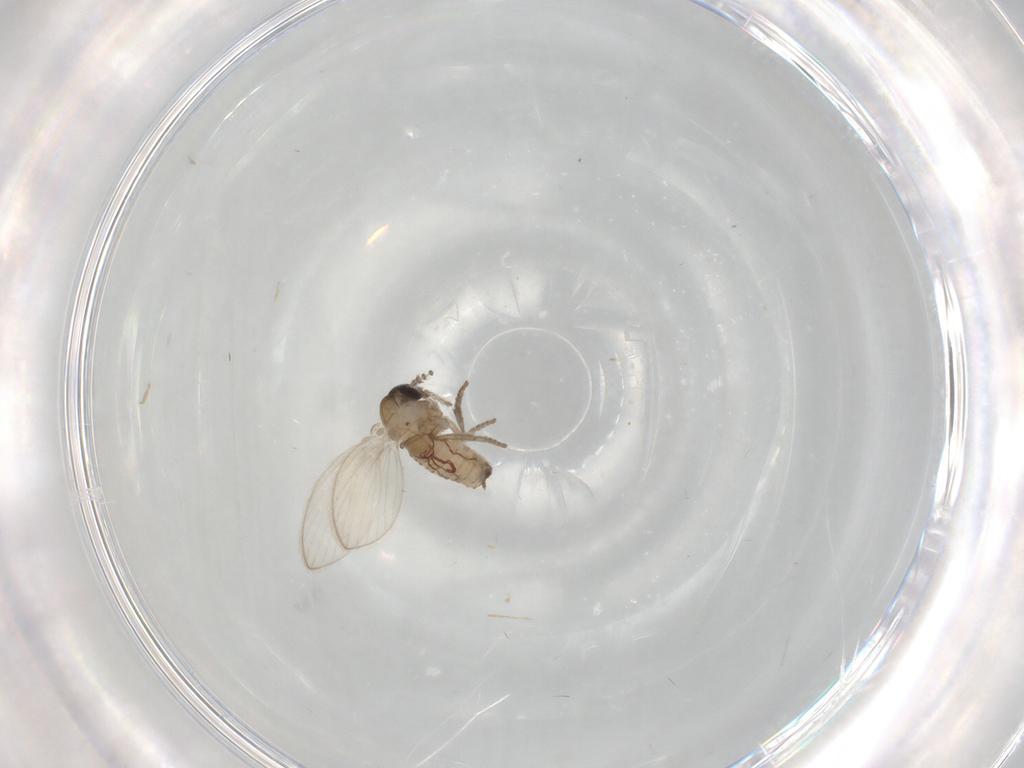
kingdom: Animalia
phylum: Arthropoda
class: Insecta
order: Diptera
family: Psychodidae
